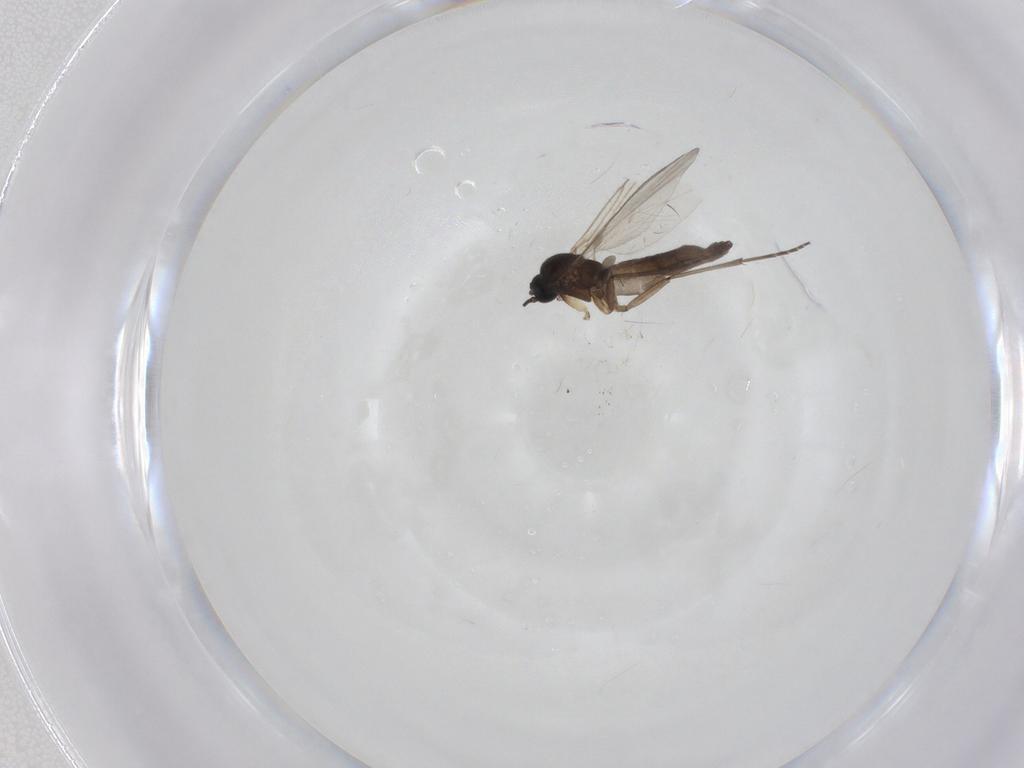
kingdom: Animalia
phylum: Arthropoda
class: Insecta
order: Diptera
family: Sciaridae
